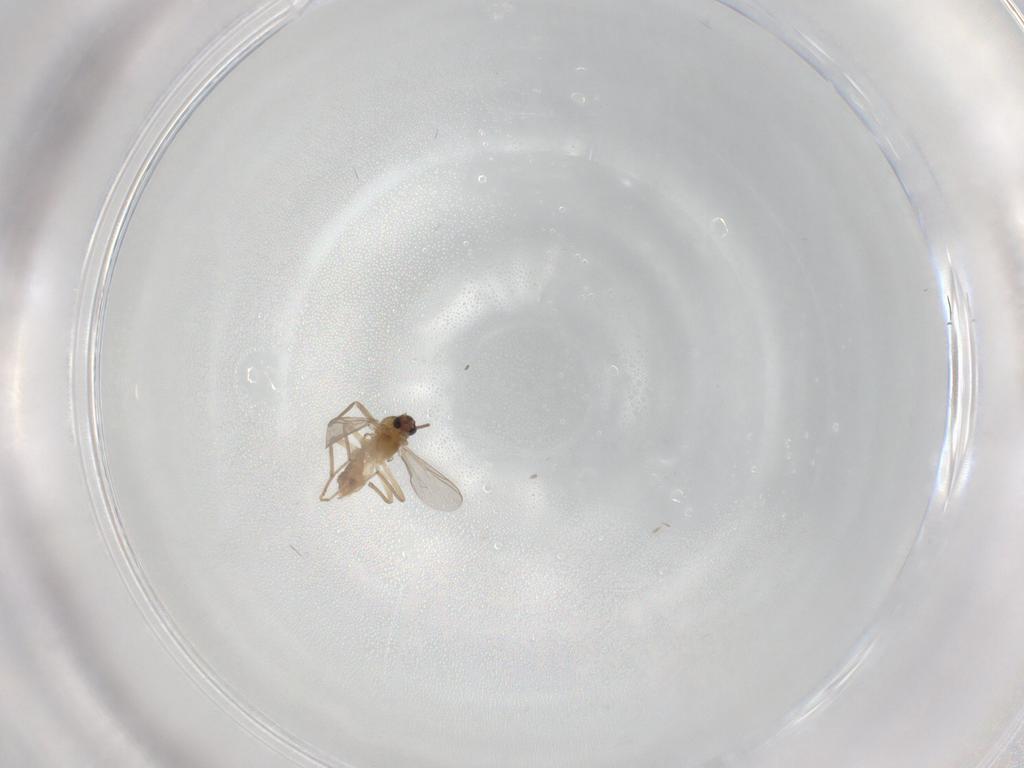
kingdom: Animalia
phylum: Arthropoda
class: Insecta
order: Diptera
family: Chironomidae
